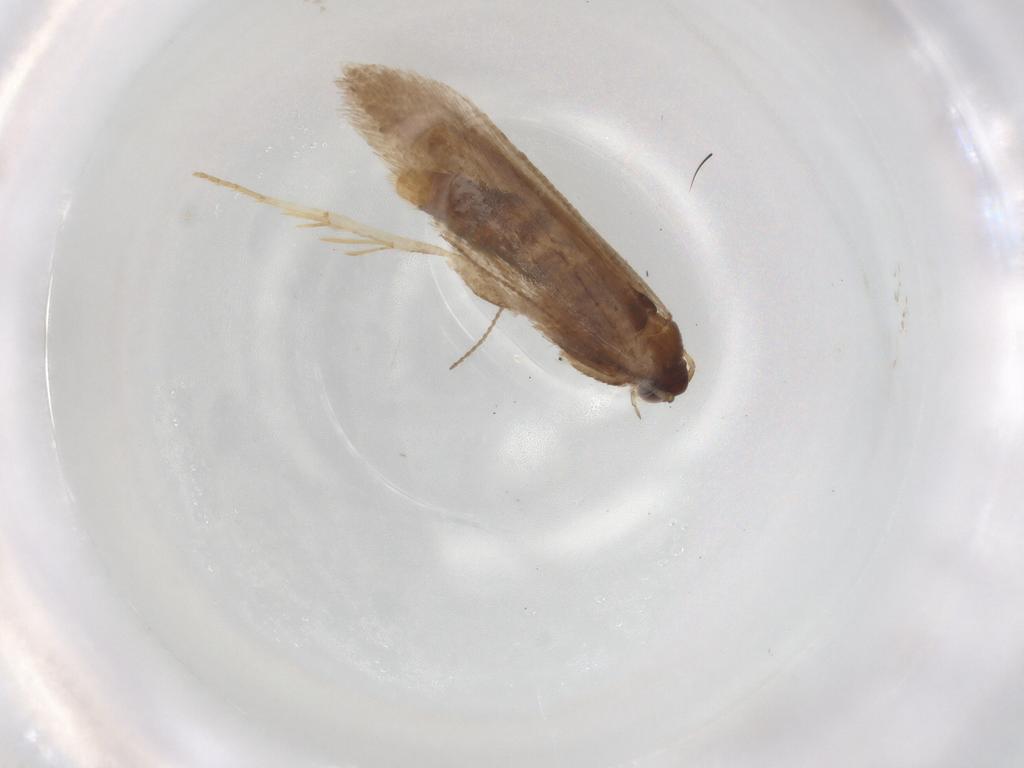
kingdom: Animalia
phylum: Arthropoda
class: Insecta
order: Lepidoptera
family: Nepticulidae
